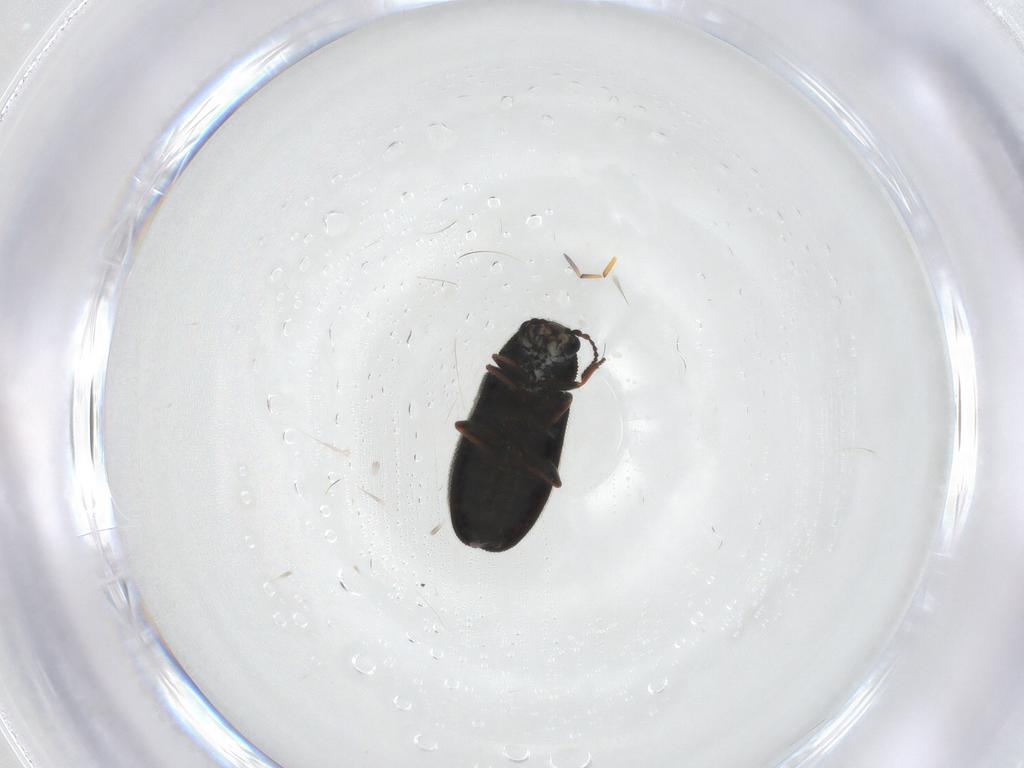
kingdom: Animalia
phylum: Arthropoda
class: Insecta
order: Coleoptera
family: Melyridae
